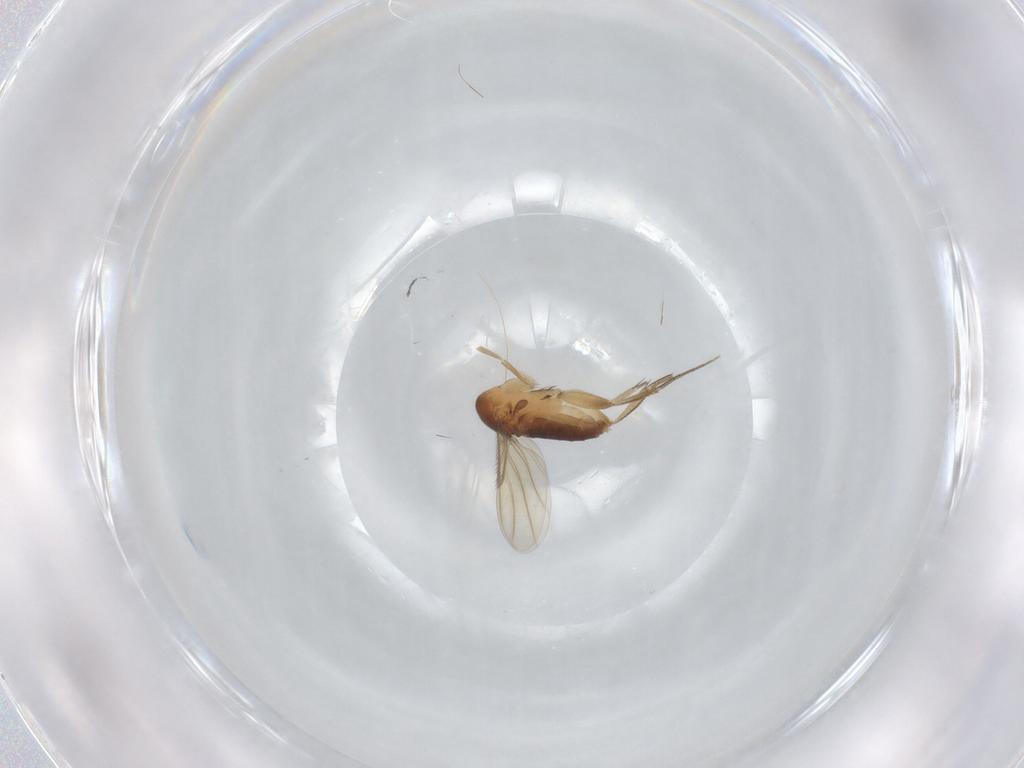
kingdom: Animalia
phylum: Arthropoda
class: Insecta
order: Diptera
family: Phoridae
